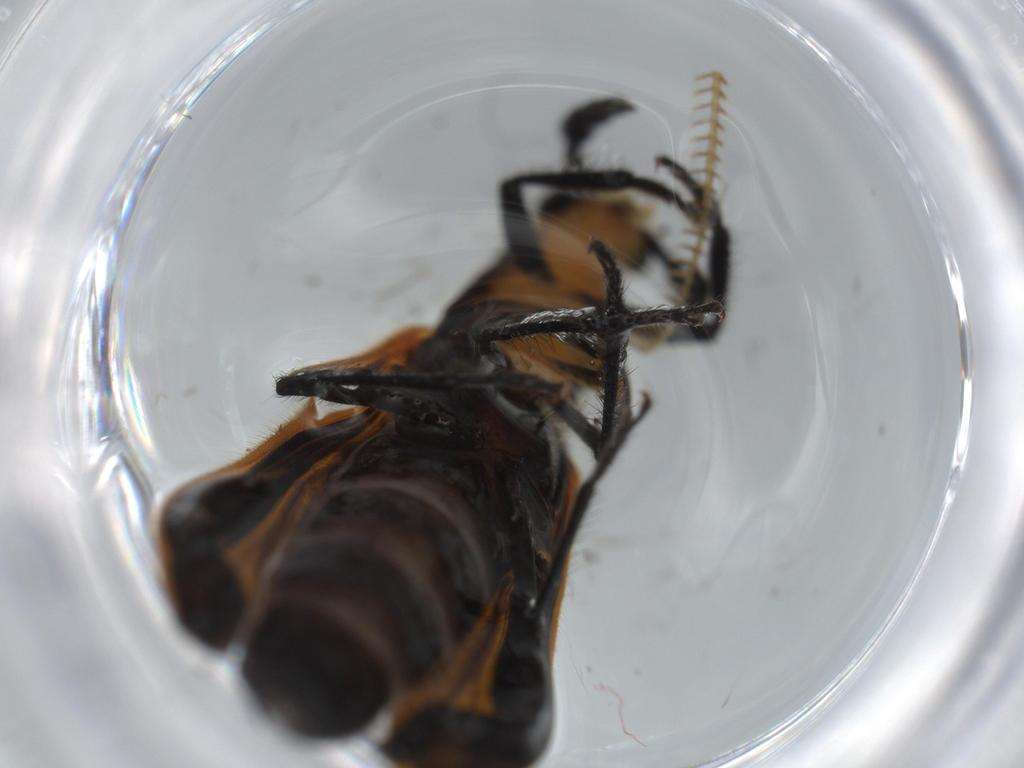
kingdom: Animalia
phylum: Arthropoda
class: Insecta
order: Coleoptera
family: Cleridae
